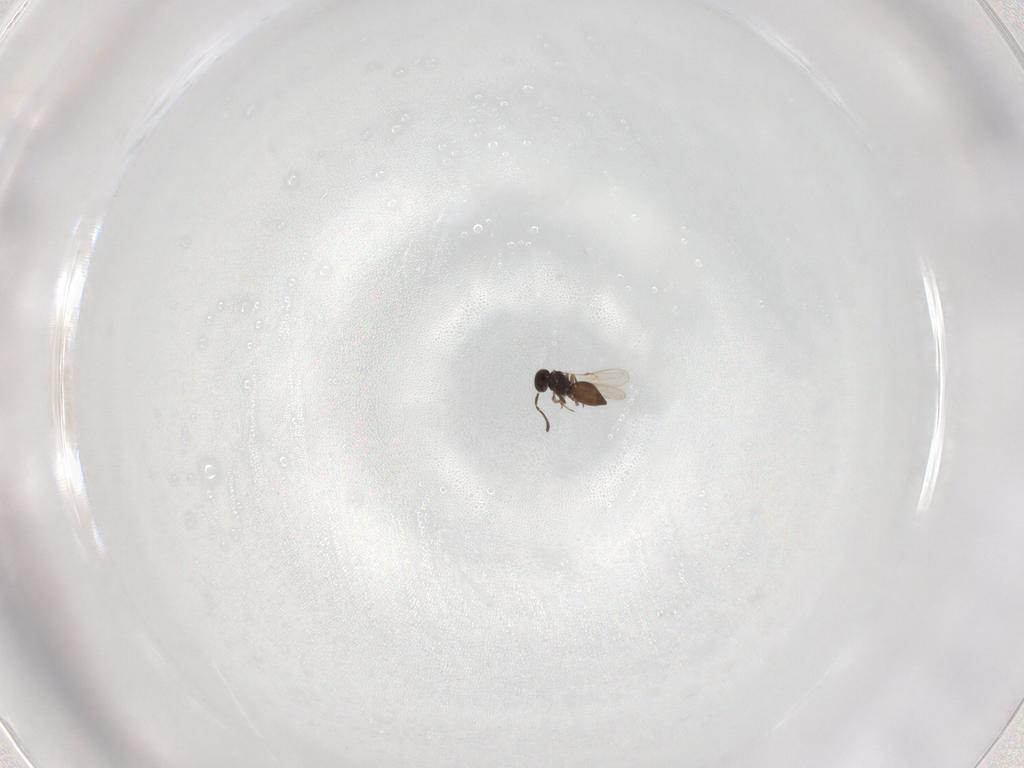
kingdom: Animalia
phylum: Arthropoda
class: Insecta
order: Hymenoptera
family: Scelionidae
